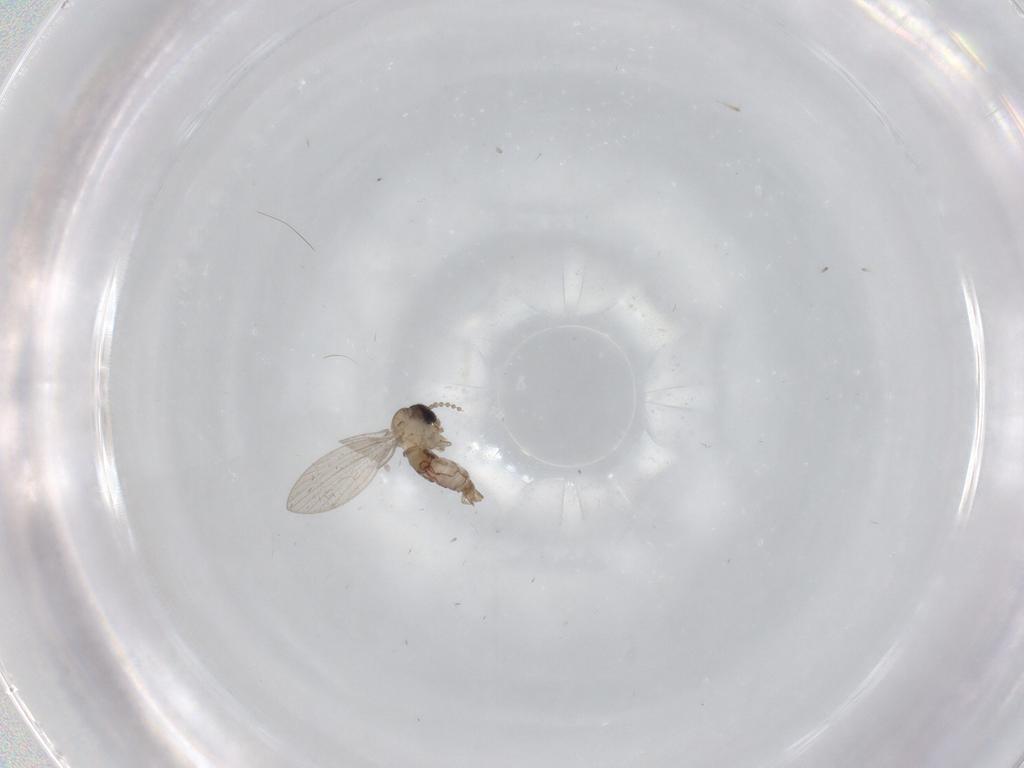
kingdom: Animalia
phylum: Arthropoda
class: Insecta
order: Diptera
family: Psychodidae
